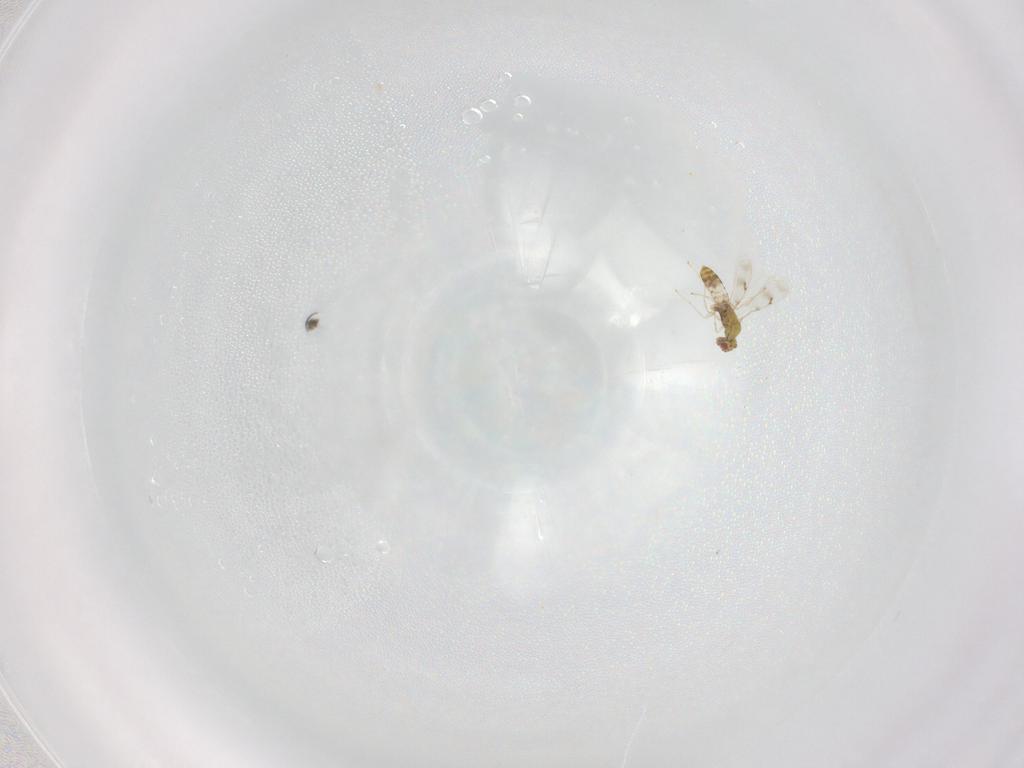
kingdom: Animalia
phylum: Arthropoda
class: Insecta
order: Hymenoptera
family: Eulophidae
